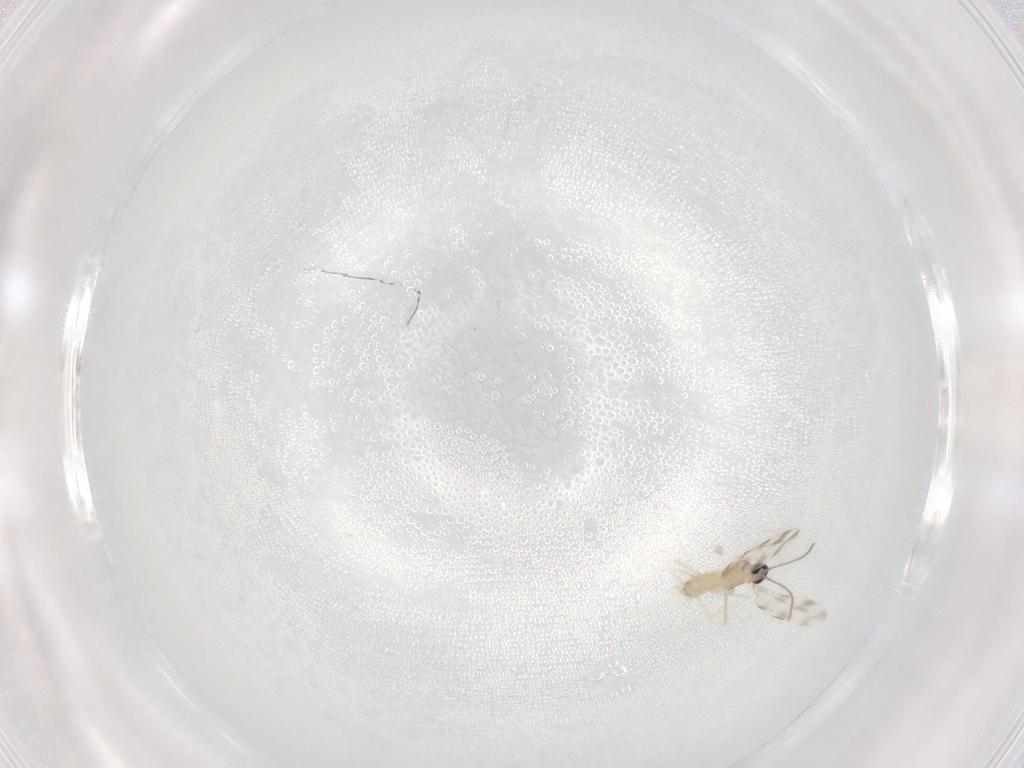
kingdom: Animalia
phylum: Arthropoda
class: Insecta
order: Diptera
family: Cecidomyiidae
